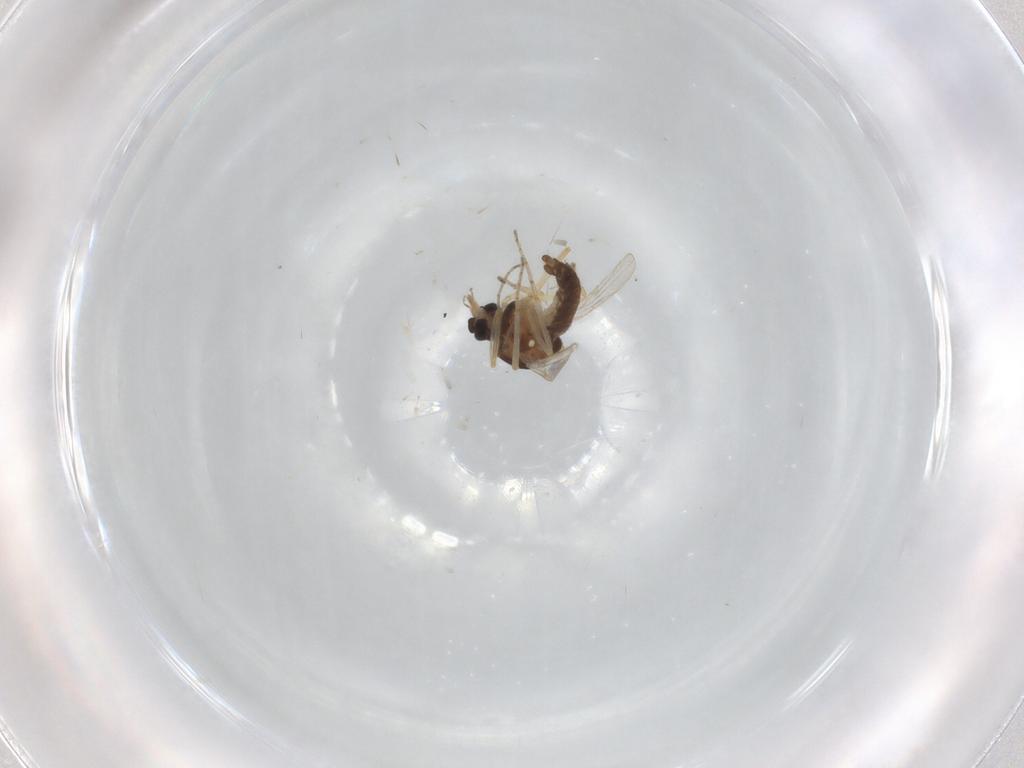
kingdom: Animalia
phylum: Arthropoda
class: Insecta
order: Diptera
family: Ceratopogonidae
